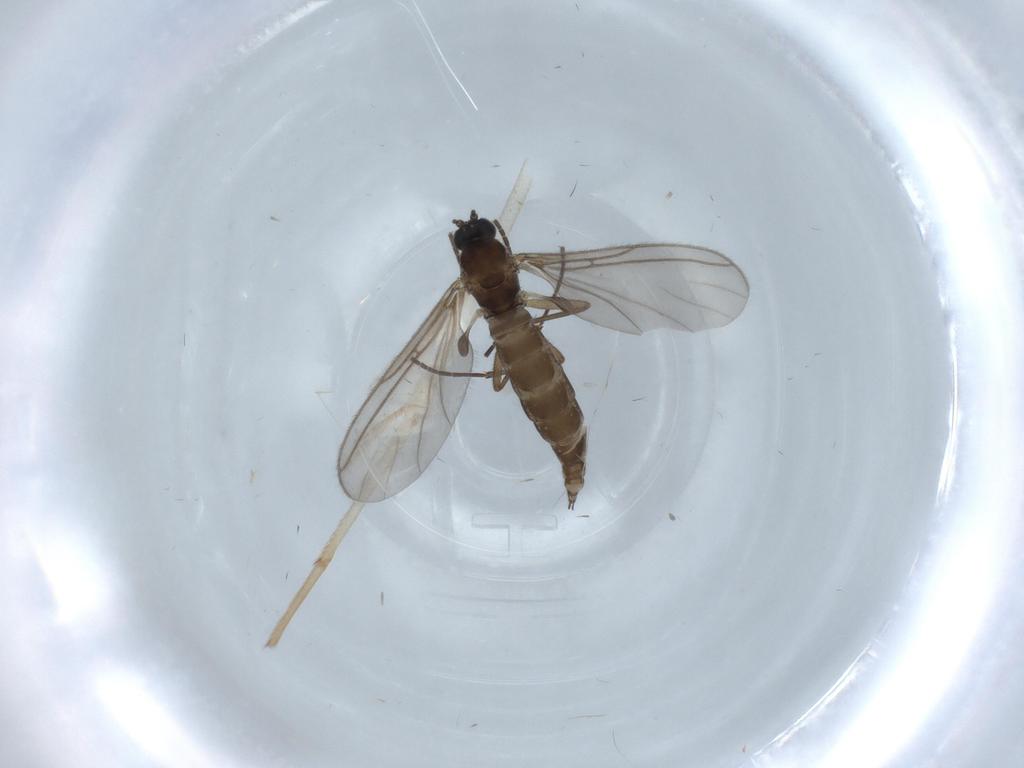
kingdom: Animalia
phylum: Arthropoda
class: Insecta
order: Diptera
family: Sciaridae
